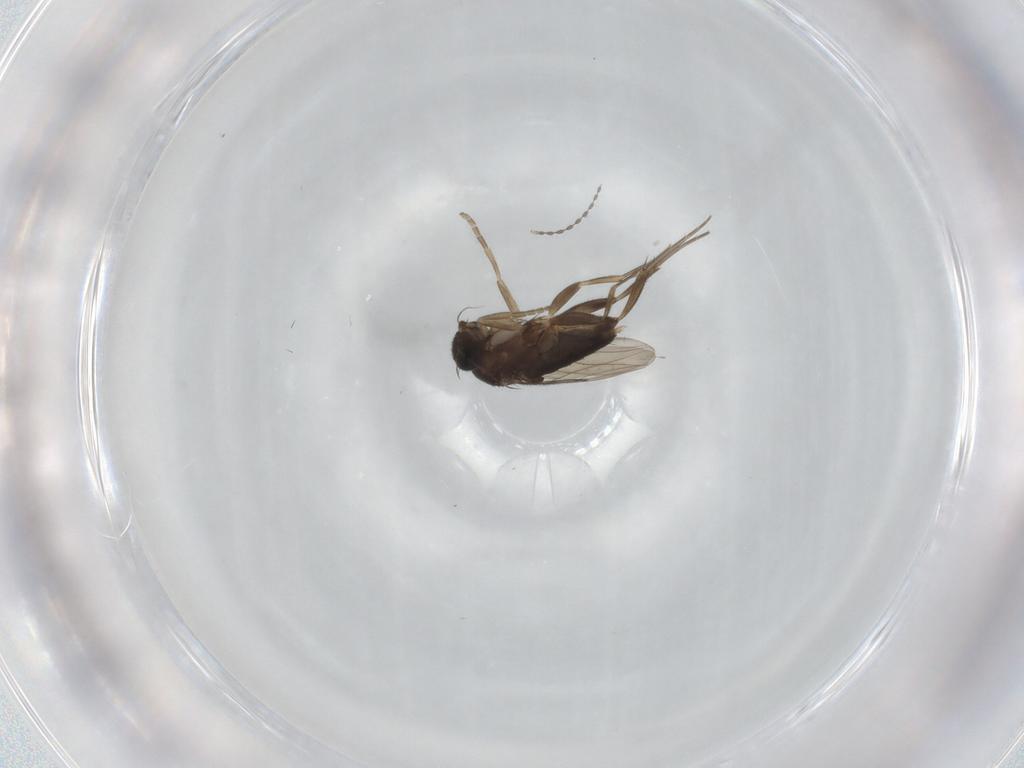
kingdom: Animalia
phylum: Arthropoda
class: Insecta
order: Diptera
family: Phoridae
